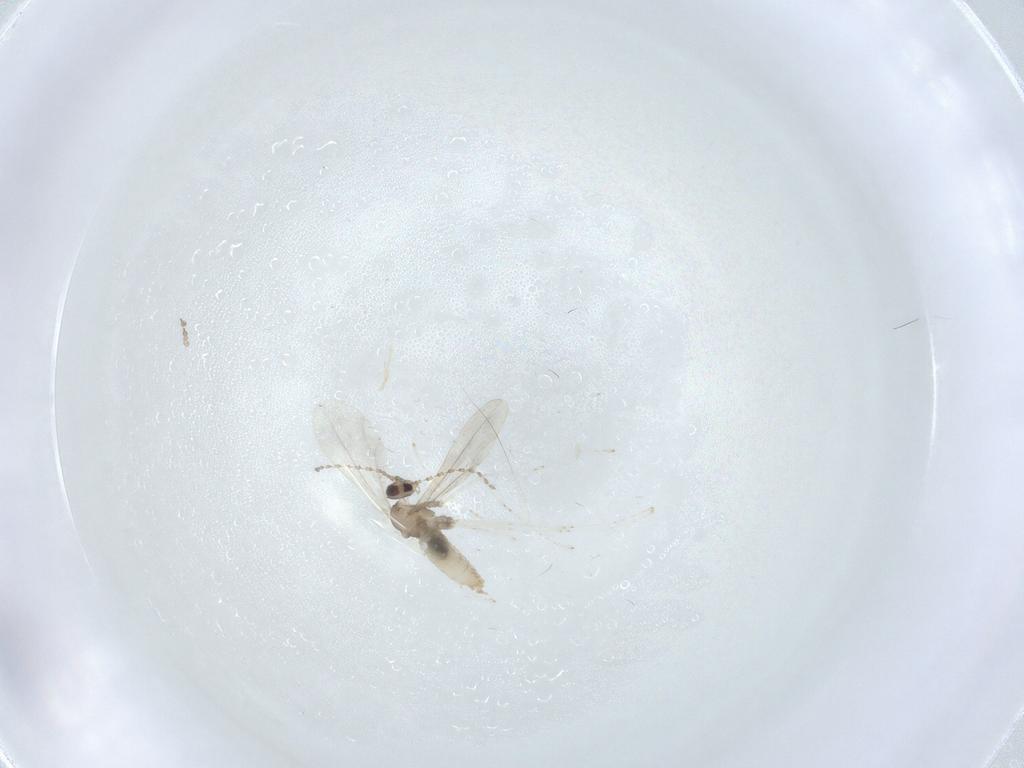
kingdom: Animalia
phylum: Arthropoda
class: Insecta
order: Diptera
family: Cecidomyiidae
